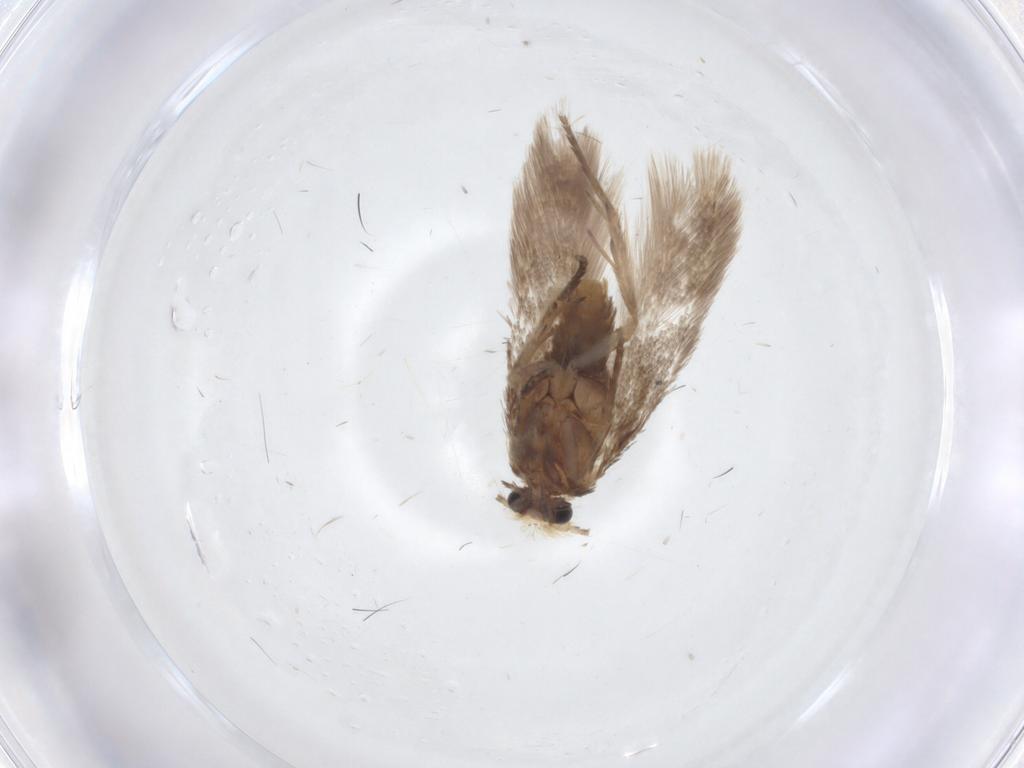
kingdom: Animalia
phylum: Arthropoda
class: Insecta
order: Lepidoptera
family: Nepticulidae
